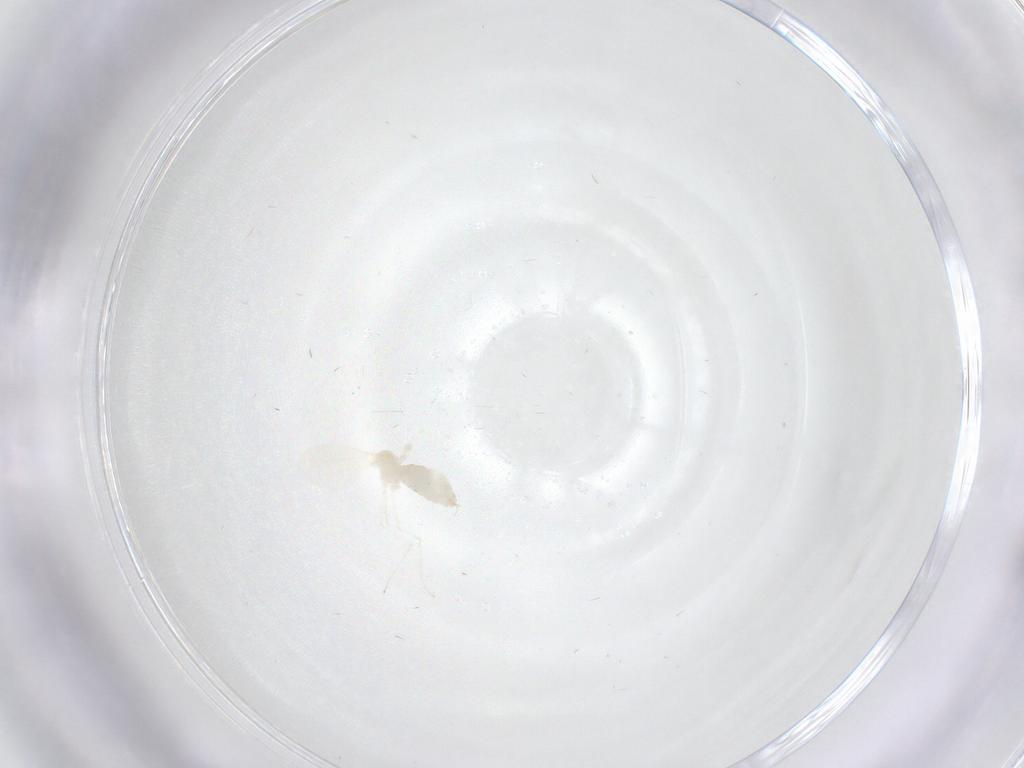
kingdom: Animalia
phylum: Arthropoda
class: Insecta
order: Diptera
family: Cecidomyiidae
